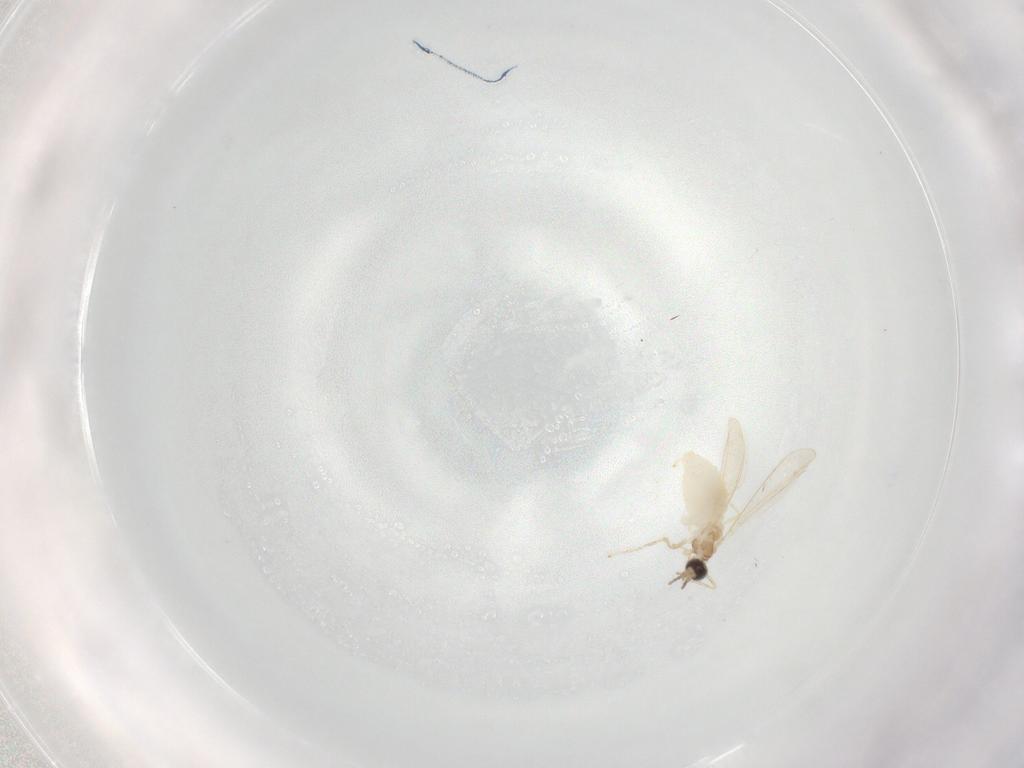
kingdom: Animalia
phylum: Arthropoda
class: Insecta
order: Diptera
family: Cecidomyiidae
